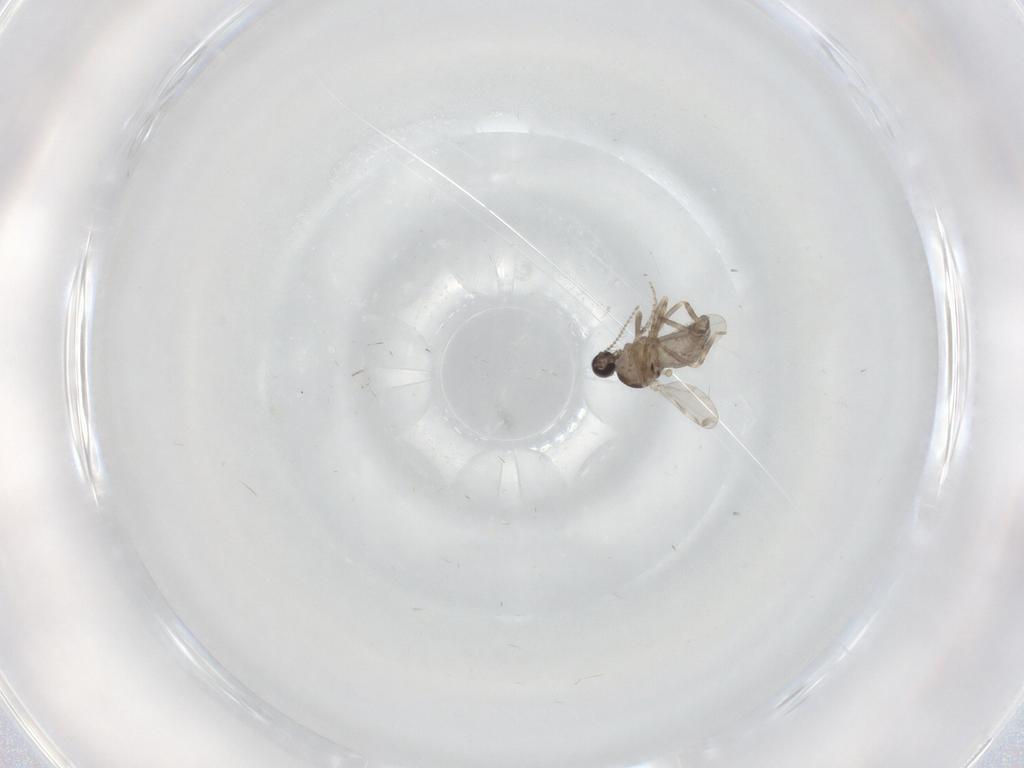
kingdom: Animalia
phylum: Arthropoda
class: Insecta
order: Diptera
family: Ceratopogonidae
